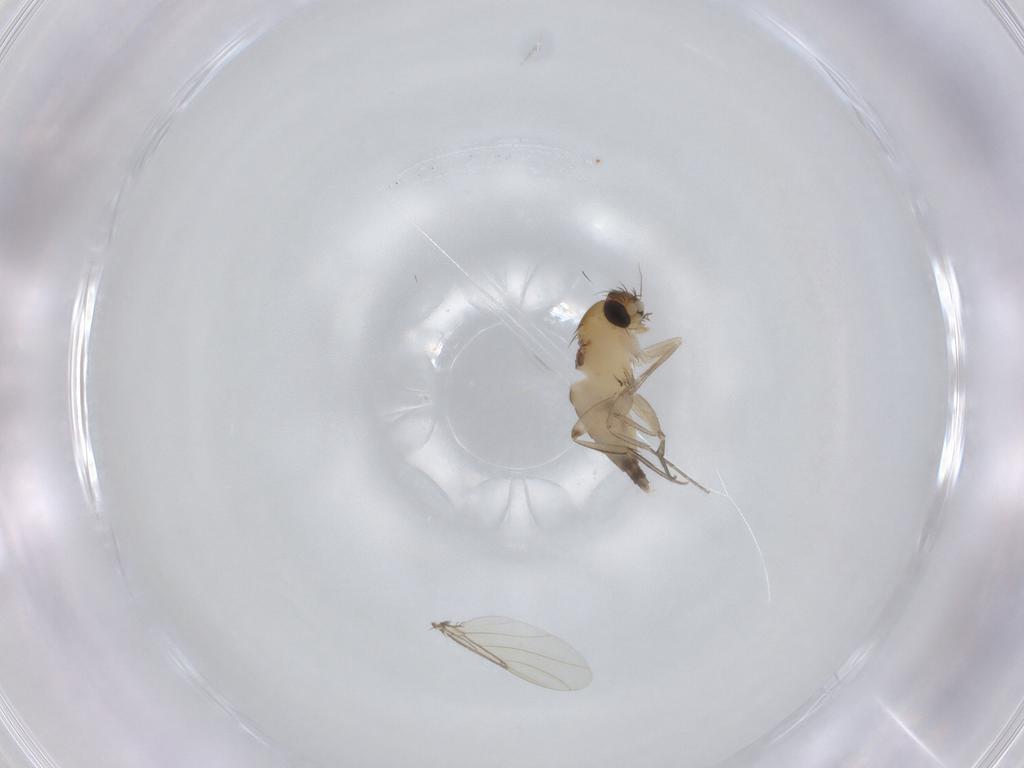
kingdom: Animalia
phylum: Arthropoda
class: Insecta
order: Diptera
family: Phoridae
